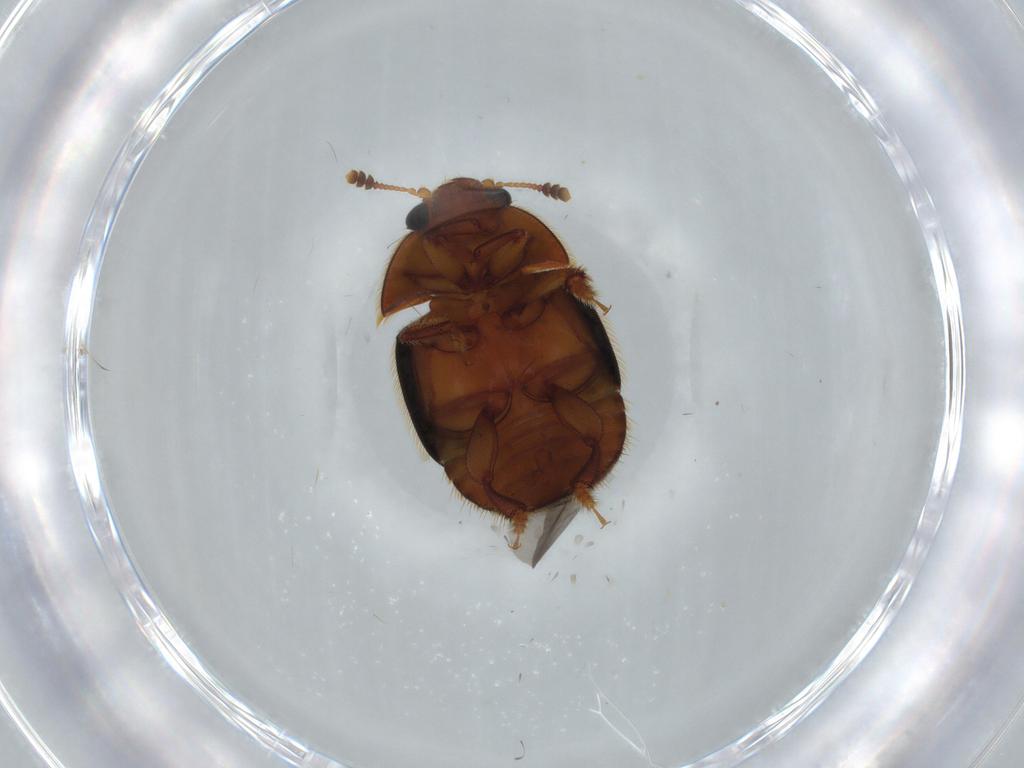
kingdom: Animalia
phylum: Arthropoda
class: Insecta
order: Coleoptera
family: Nitidulidae
